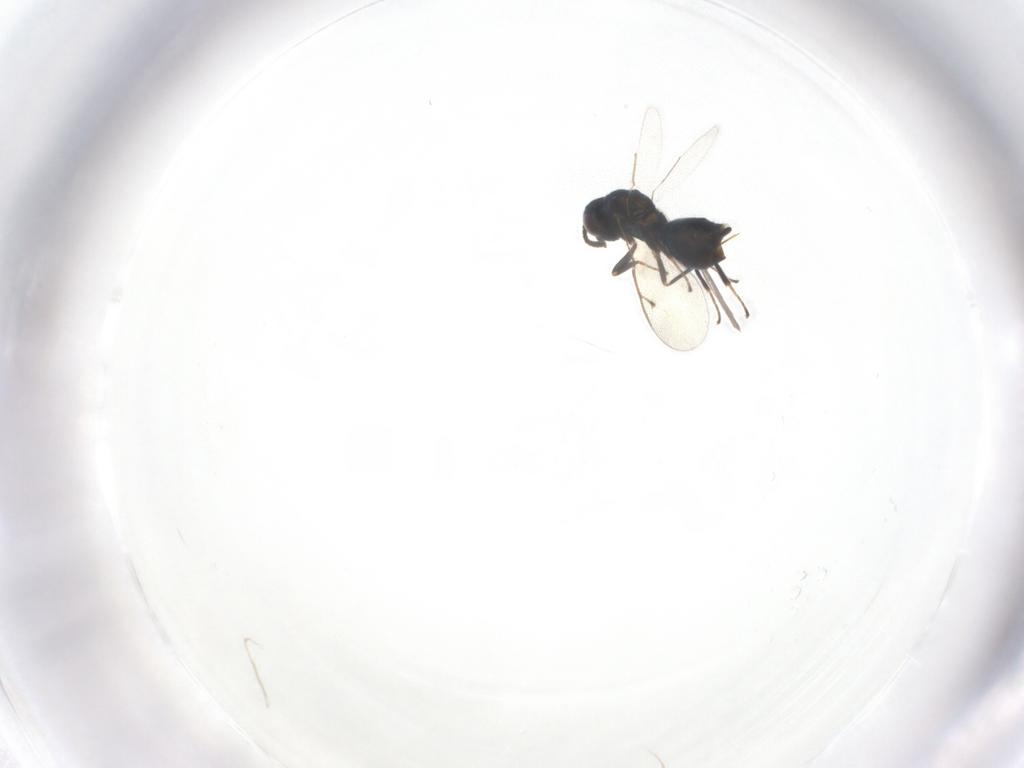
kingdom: Animalia
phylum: Arthropoda
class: Insecta
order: Hymenoptera
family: Pteromalidae
